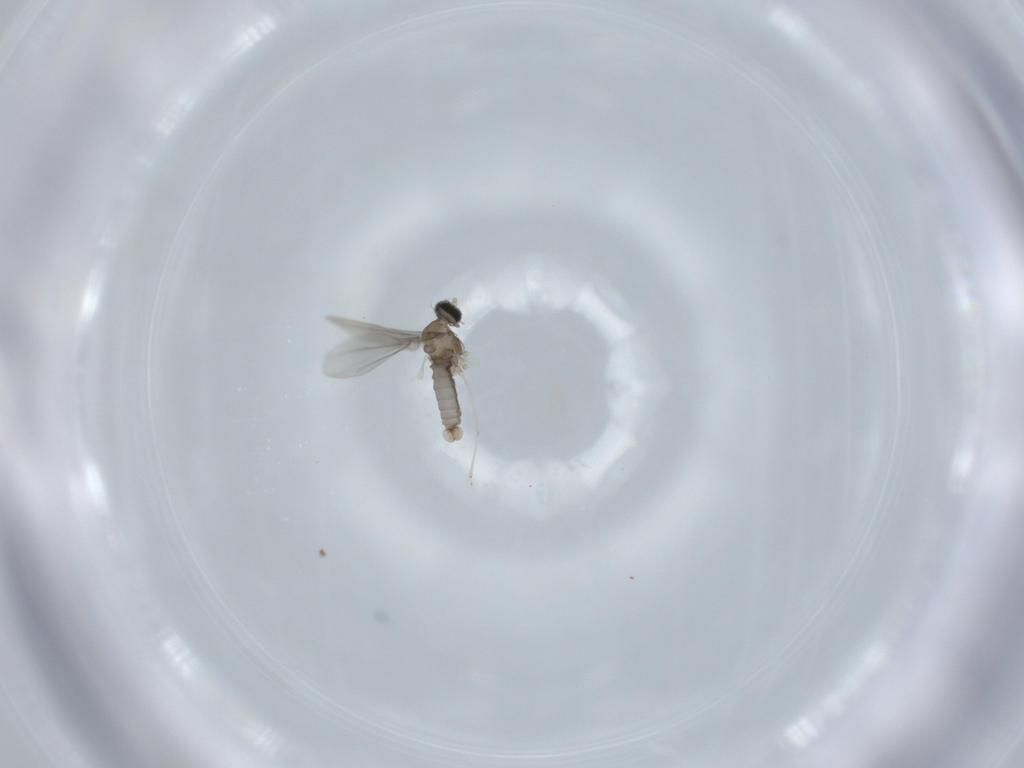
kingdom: Animalia
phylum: Arthropoda
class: Insecta
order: Diptera
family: Cecidomyiidae
